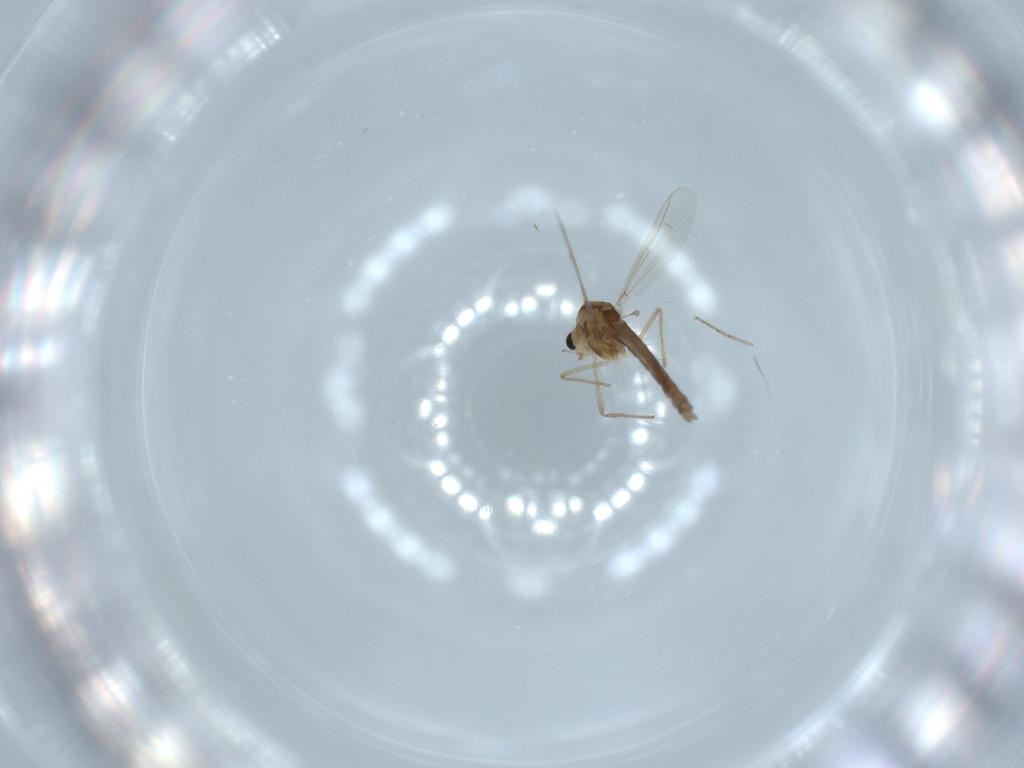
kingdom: Animalia
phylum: Arthropoda
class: Insecta
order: Diptera
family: Chironomidae
